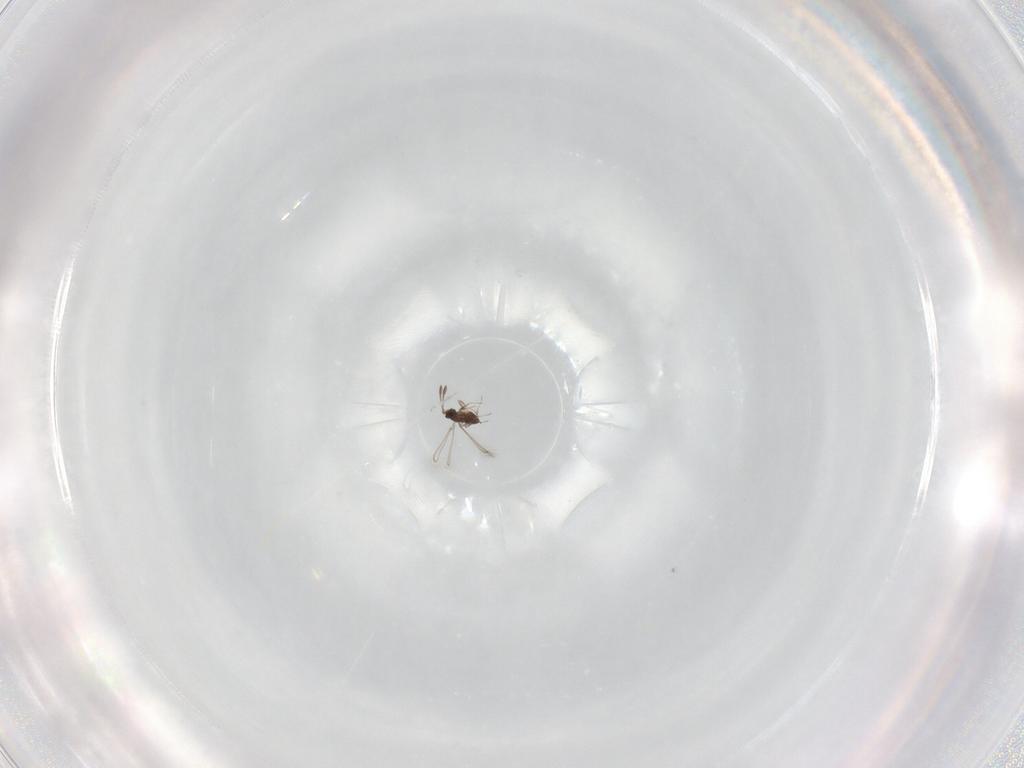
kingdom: Animalia
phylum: Arthropoda
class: Insecta
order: Hymenoptera
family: Mymaridae
